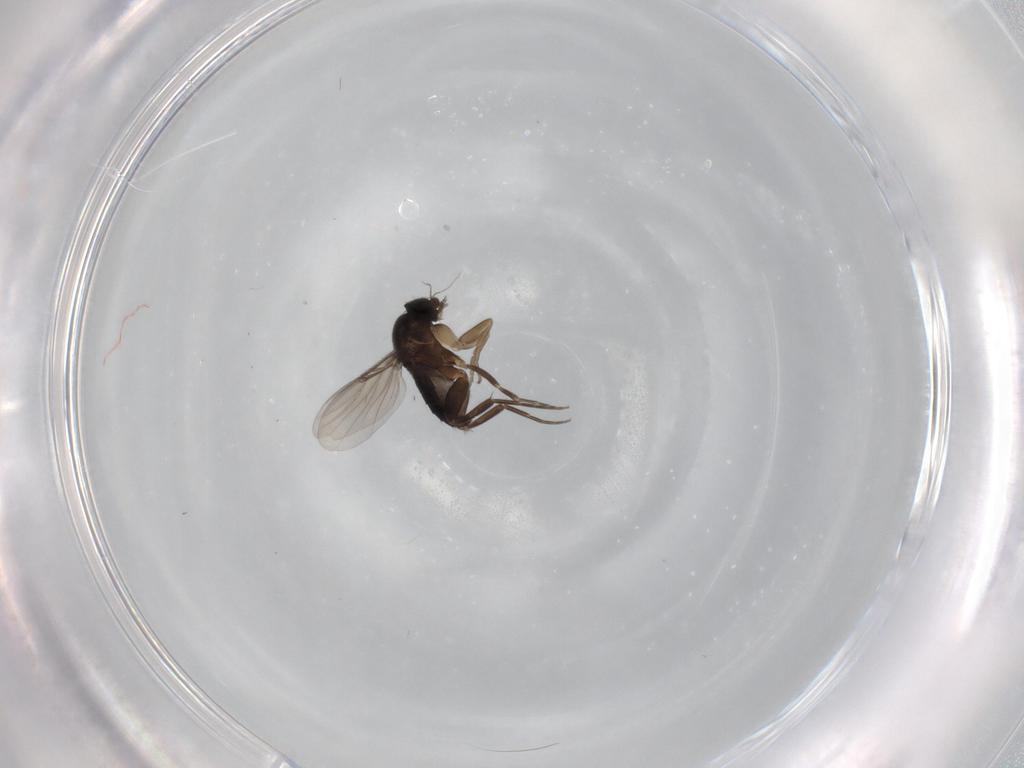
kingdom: Animalia
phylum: Arthropoda
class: Insecta
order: Diptera
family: Phoridae
